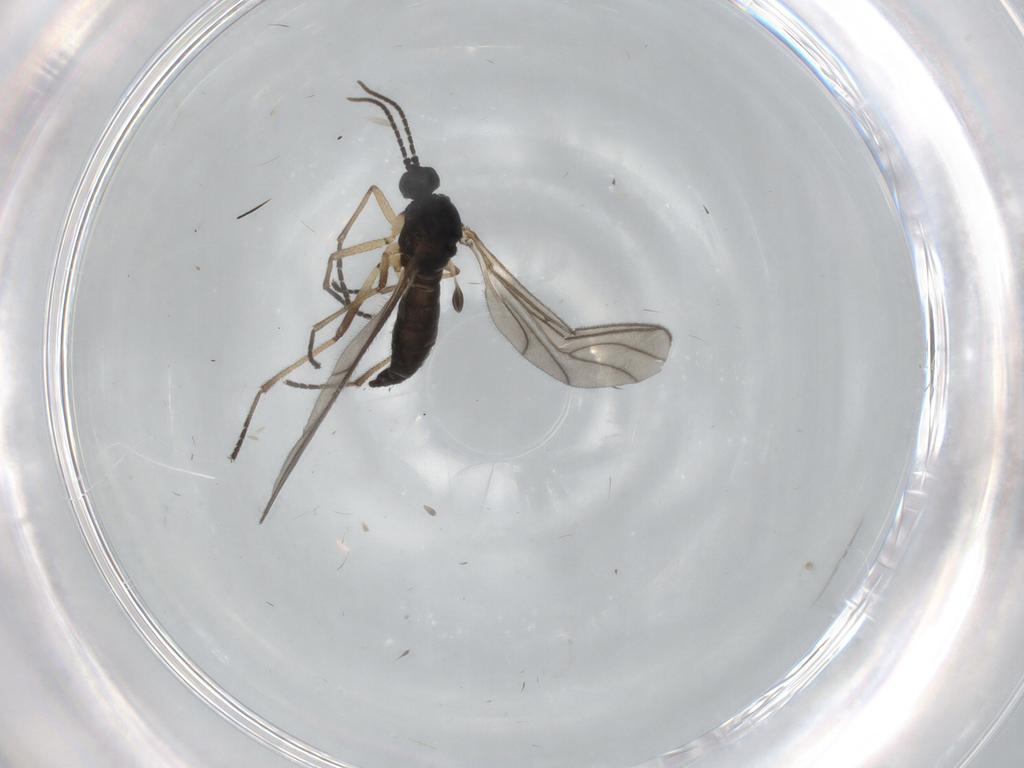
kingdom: Animalia
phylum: Arthropoda
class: Insecta
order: Diptera
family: Sciaridae
